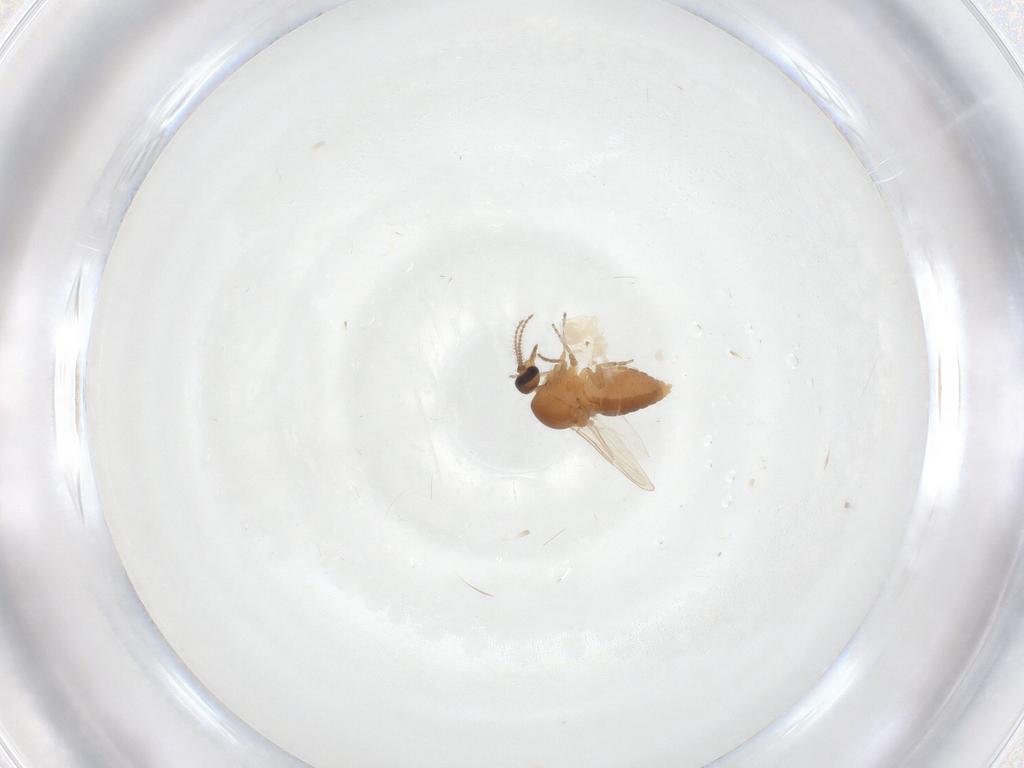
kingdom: Animalia
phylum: Arthropoda
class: Insecta
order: Diptera
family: Ceratopogonidae
